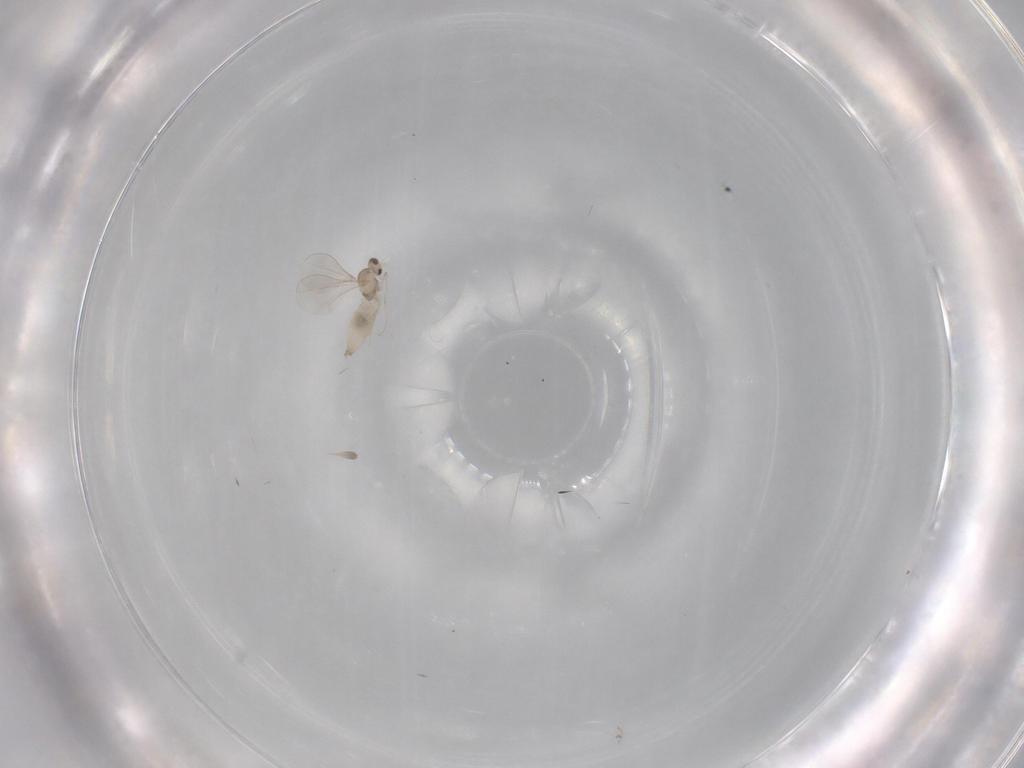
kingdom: Animalia
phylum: Arthropoda
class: Insecta
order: Diptera
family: Cecidomyiidae
